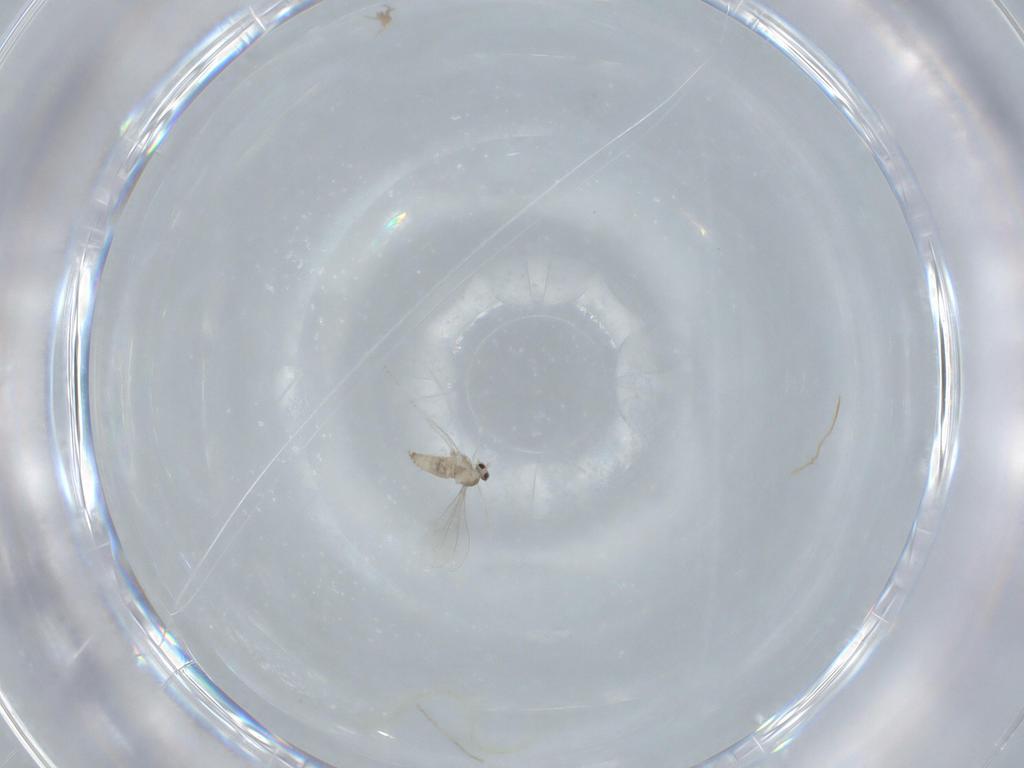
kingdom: Animalia
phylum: Arthropoda
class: Insecta
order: Diptera
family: Cecidomyiidae
